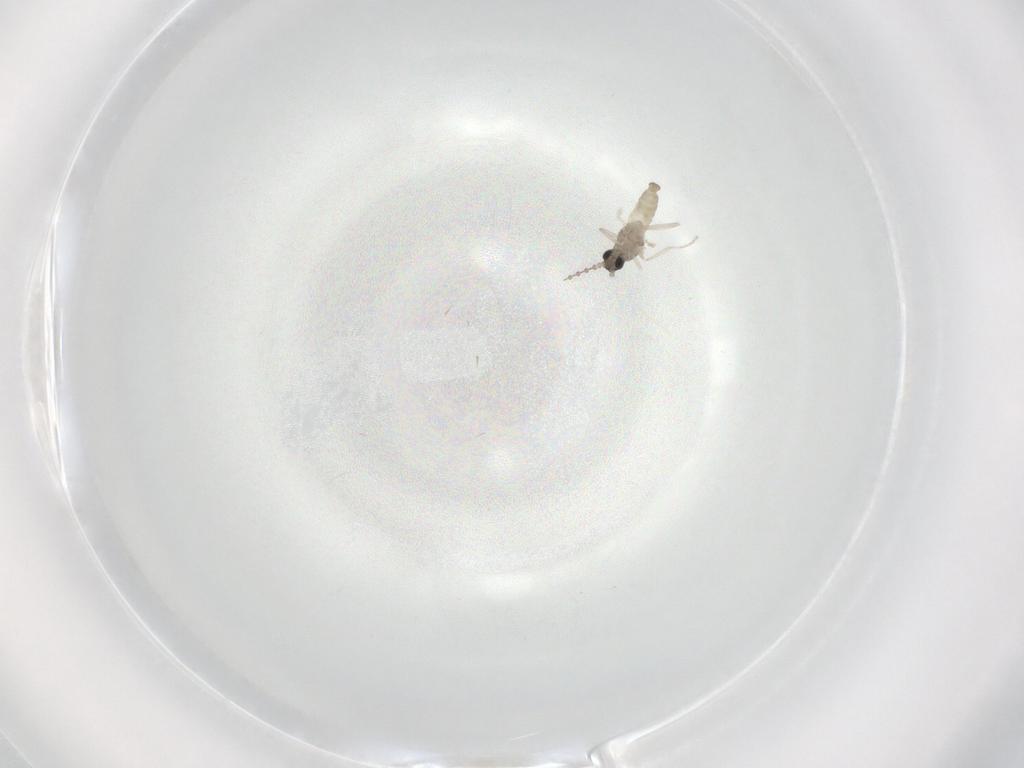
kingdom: Animalia
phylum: Arthropoda
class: Insecta
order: Diptera
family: Cecidomyiidae
